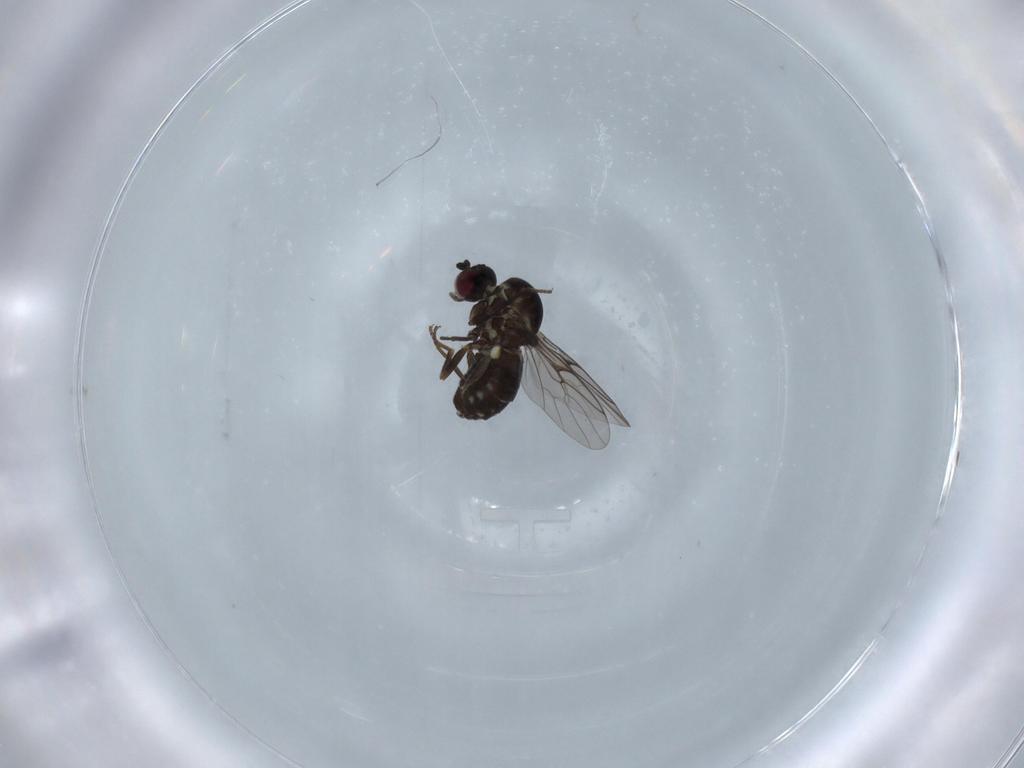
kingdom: Animalia
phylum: Arthropoda
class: Insecta
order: Diptera
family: Bombyliidae
